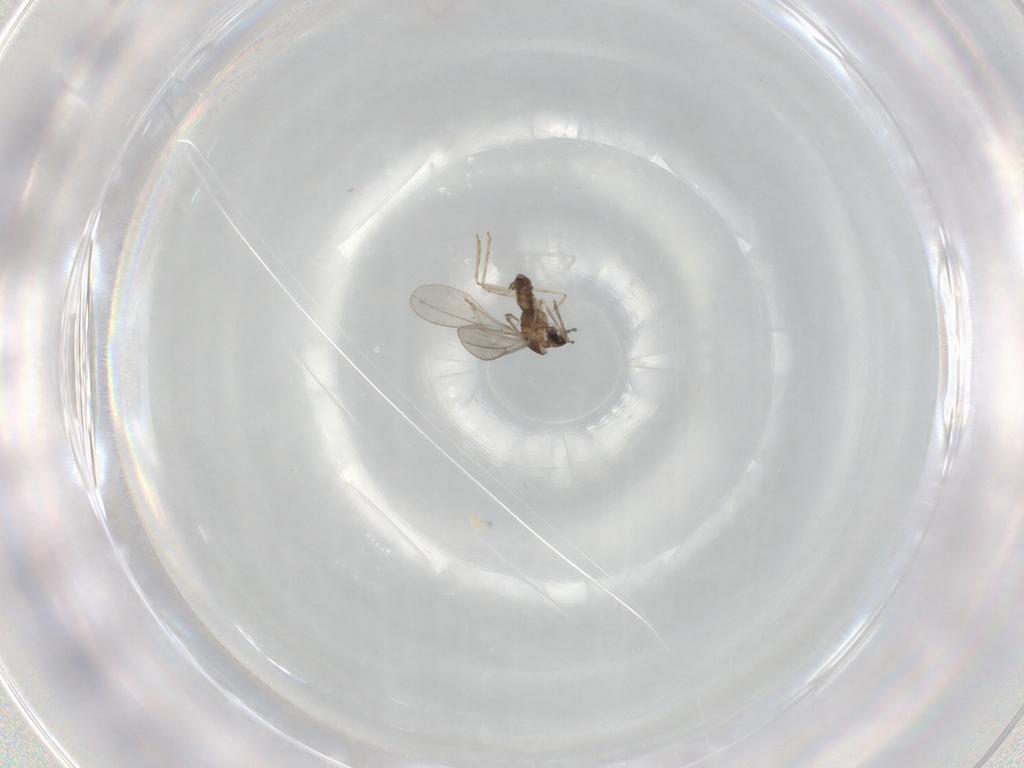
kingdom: Animalia
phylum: Arthropoda
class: Insecta
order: Diptera
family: Cecidomyiidae
